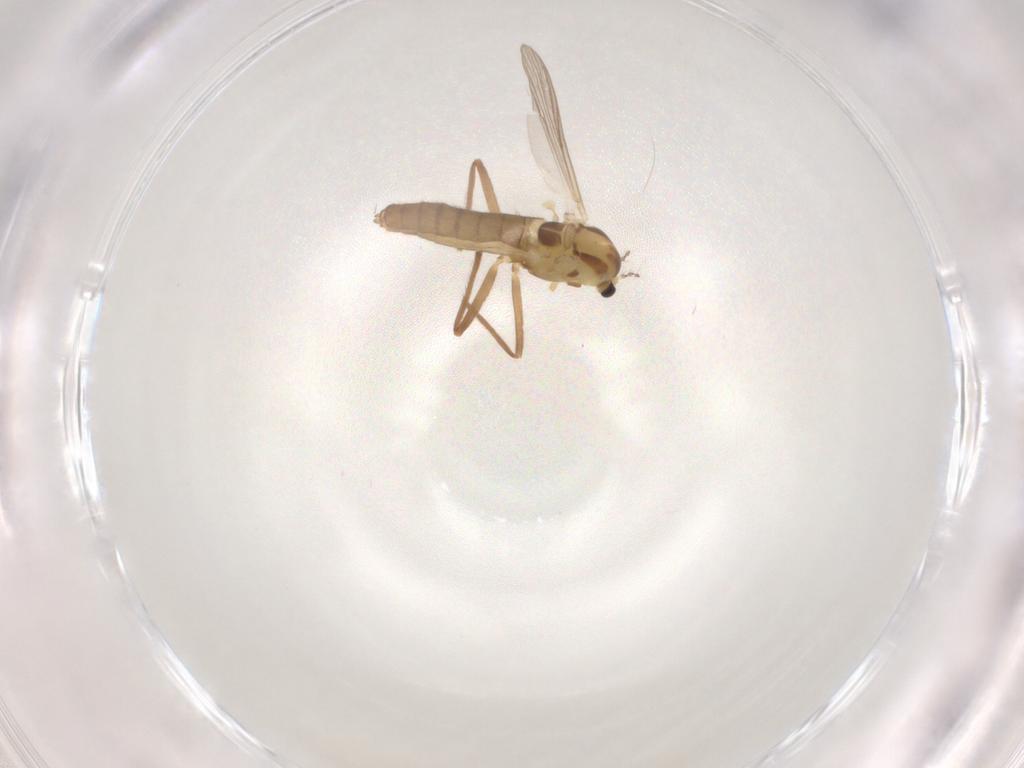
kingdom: Animalia
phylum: Arthropoda
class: Insecta
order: Diptera
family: Chironomidae
